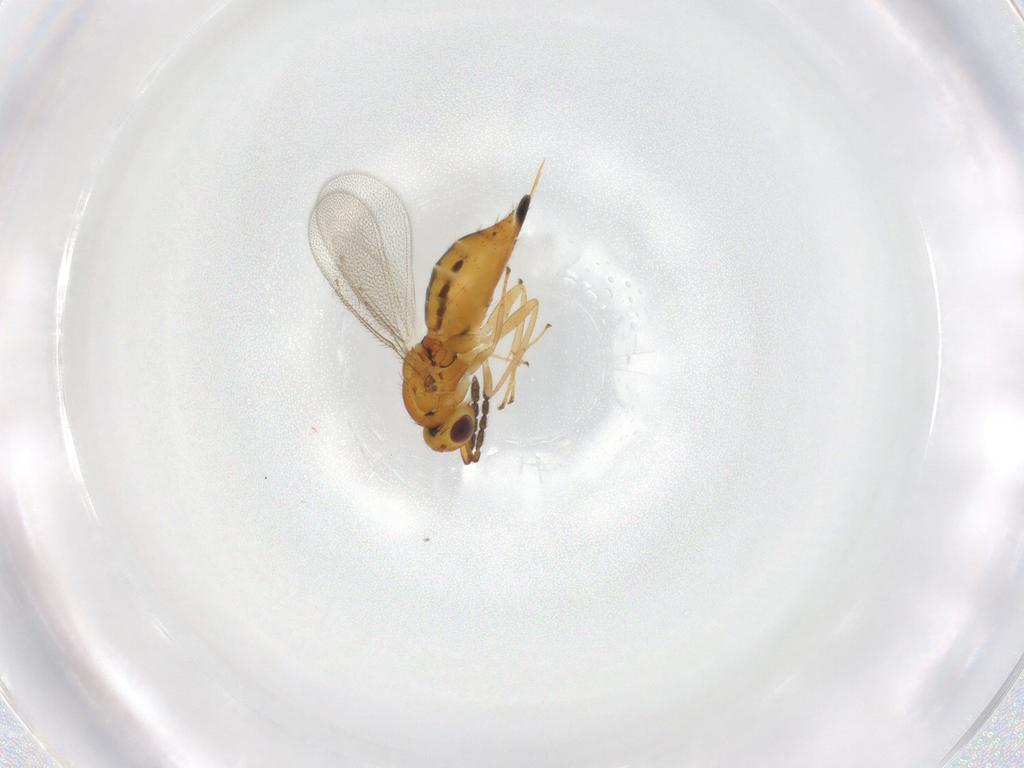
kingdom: Animalia
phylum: Arthropoda
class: Insecta
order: Hymenoptera
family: Eulophidae
